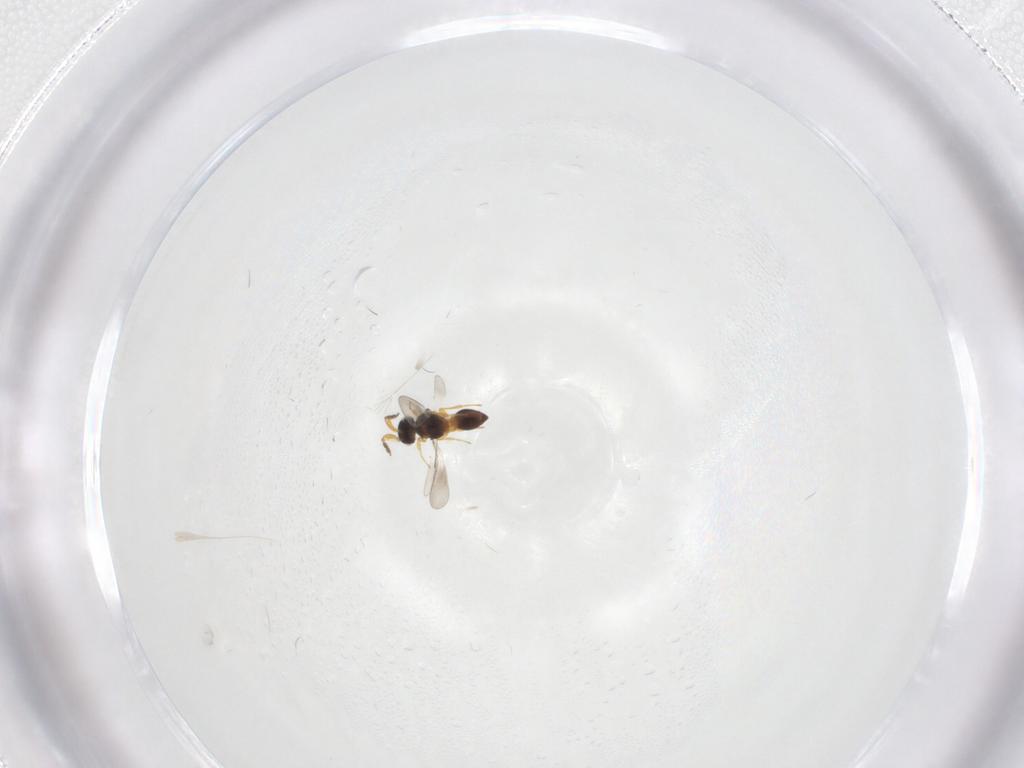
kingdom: Animalia
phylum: Arthropoda
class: Insecta
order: Hymenoptera
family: Platygastridae
